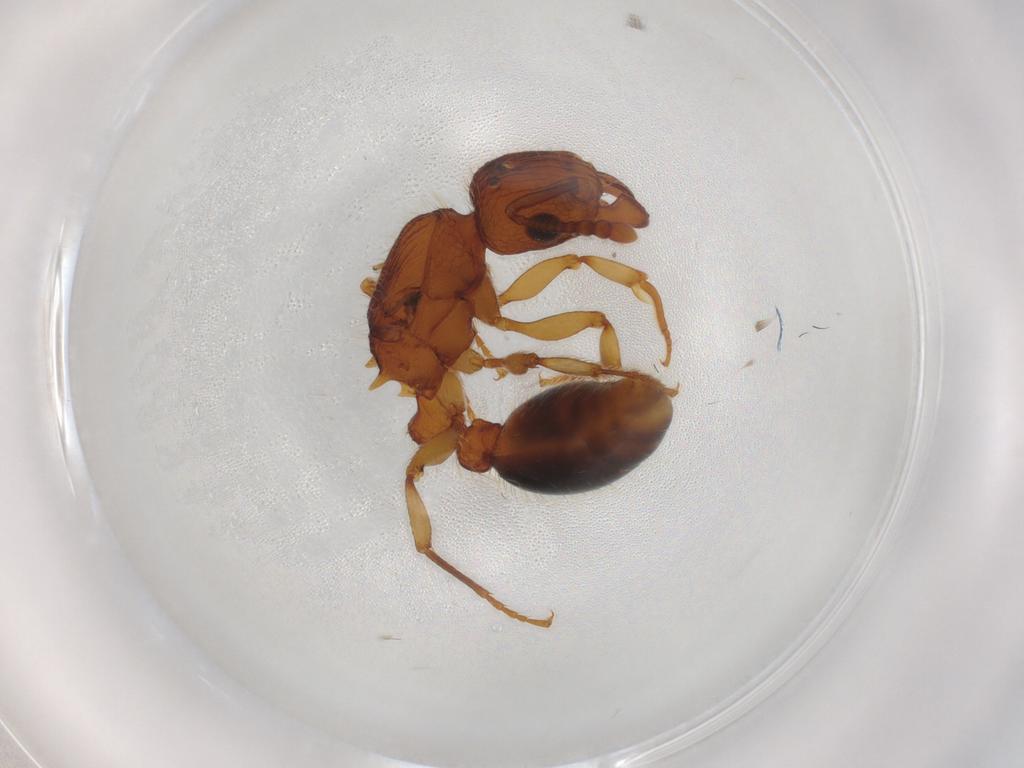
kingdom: Animalia
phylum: Arthropoda
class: Insecta
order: Hymenoptera
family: Formicidae
